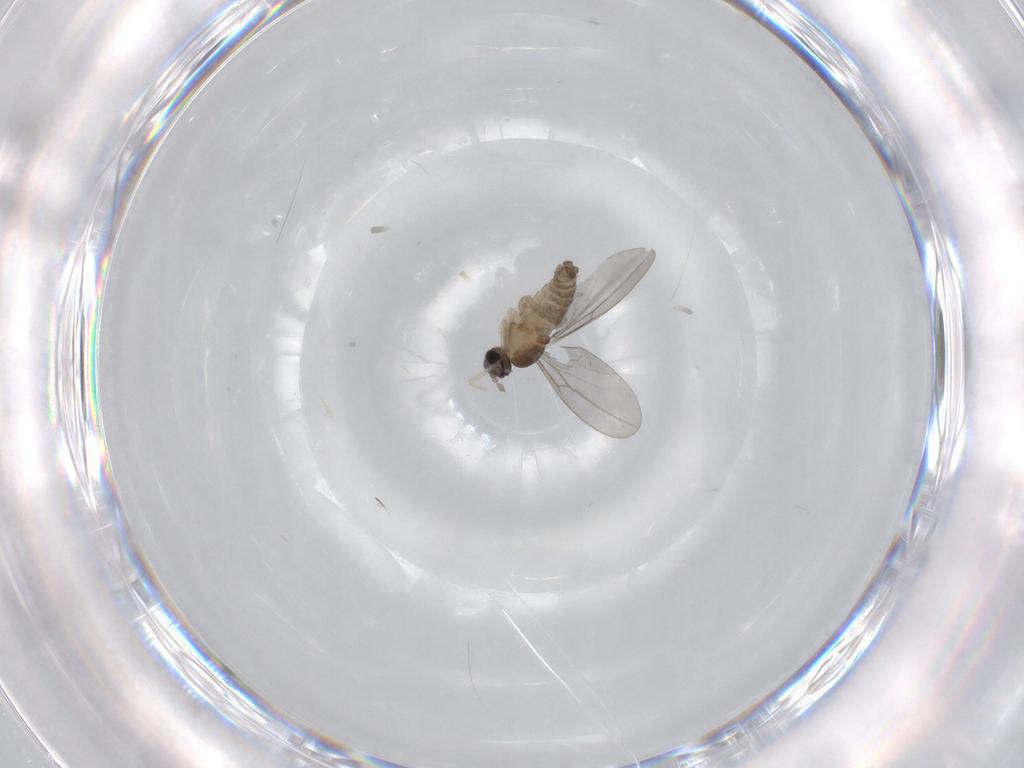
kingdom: Animalia
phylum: Arthropoda
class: Insecta
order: Diptera
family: Cecidomyiidae
